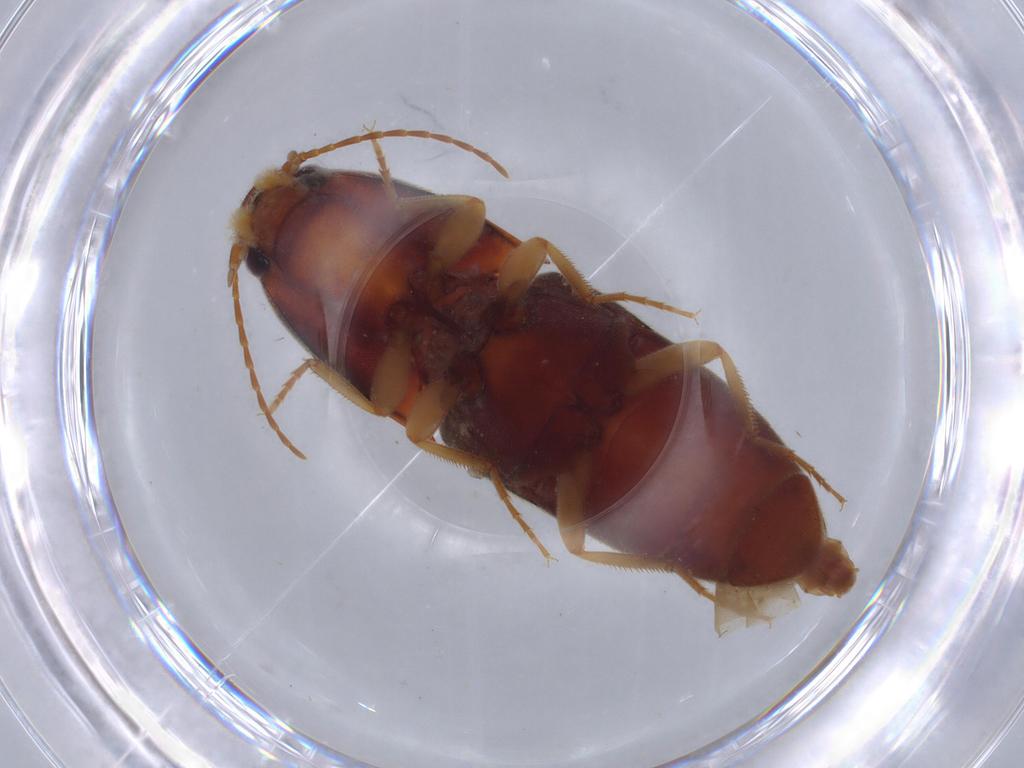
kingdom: Animalia
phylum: Arthropoda
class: Insecta
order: Coleoptera
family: Elateridae
